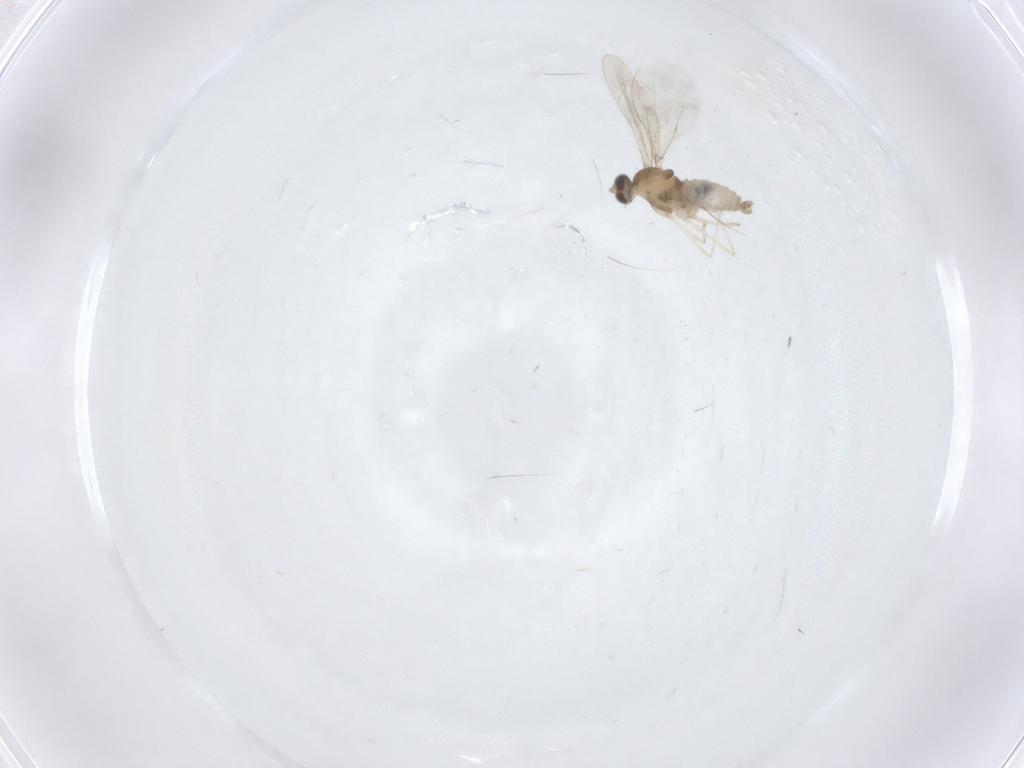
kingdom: Animalia
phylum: Arthropoda
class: Insecta
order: Diptera
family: Cecidomyiidae
